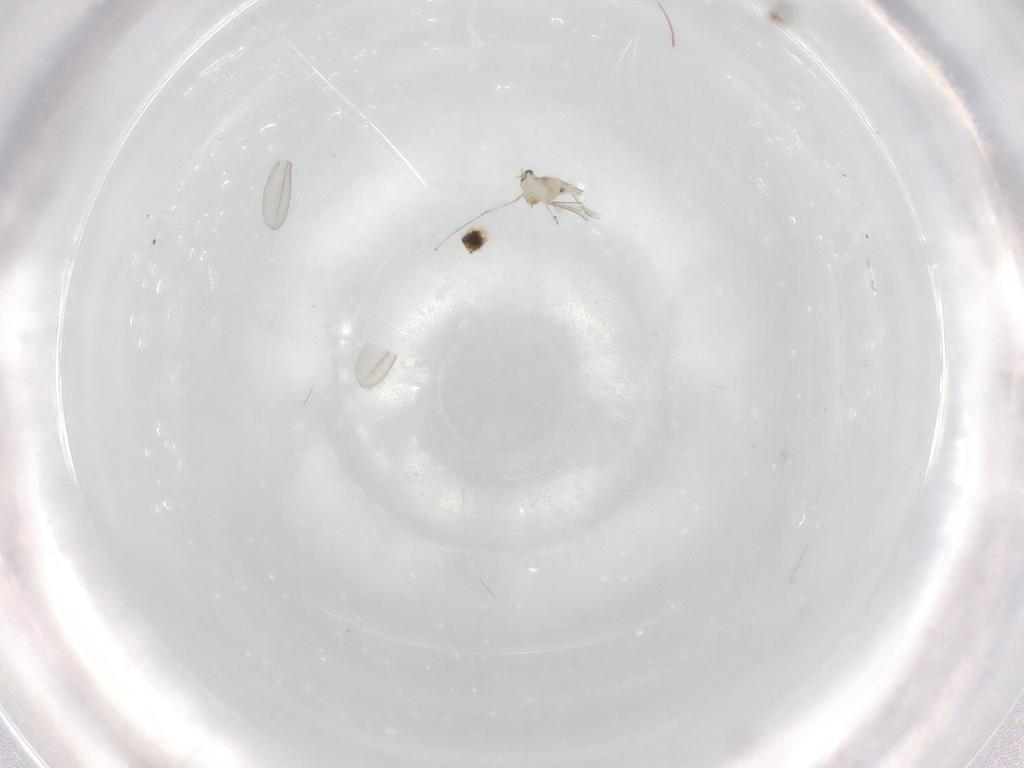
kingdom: Animalia
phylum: Arthropoda
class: Insecta
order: Diptera
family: Cecidomyiidae
